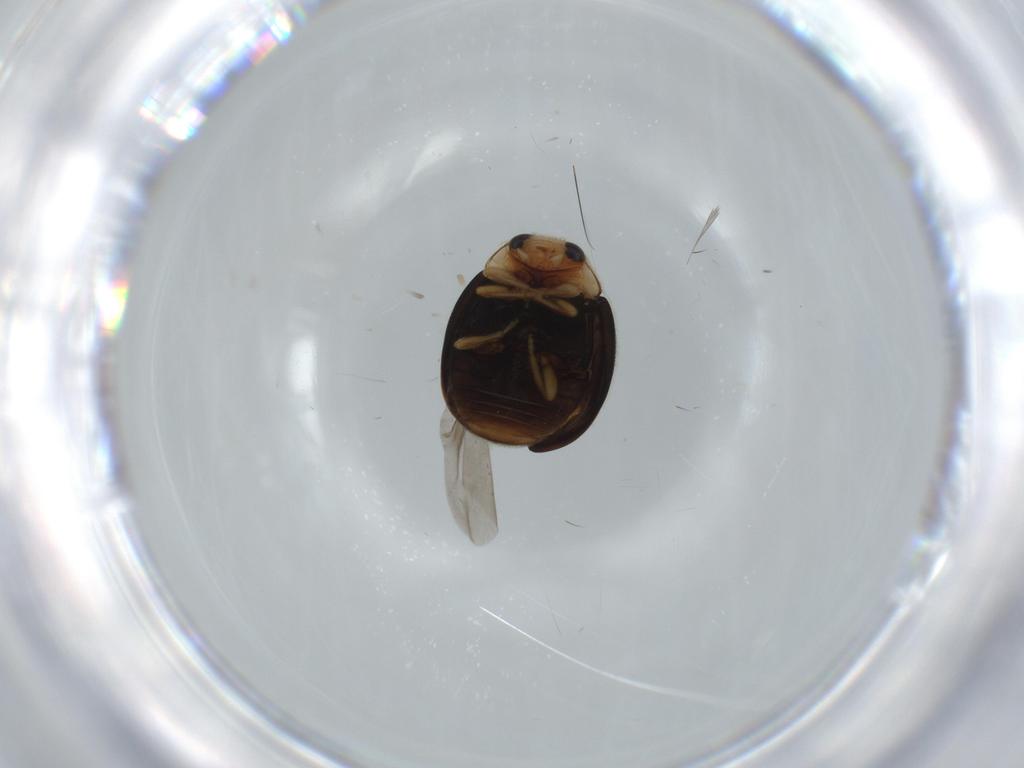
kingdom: Animalia
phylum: Arthropoda
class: Insecta
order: Coleoptera
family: Coccinellidae
